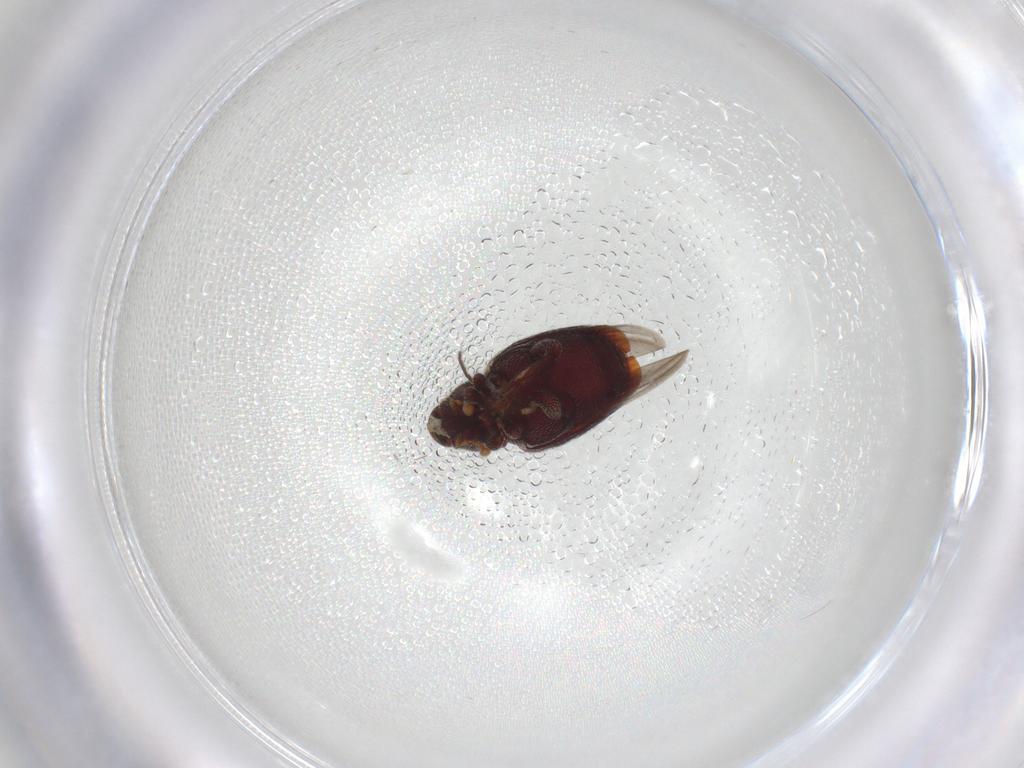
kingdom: Animalia
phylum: Arthropoda
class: Insecta
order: Coleoptera
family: Curculionidae
